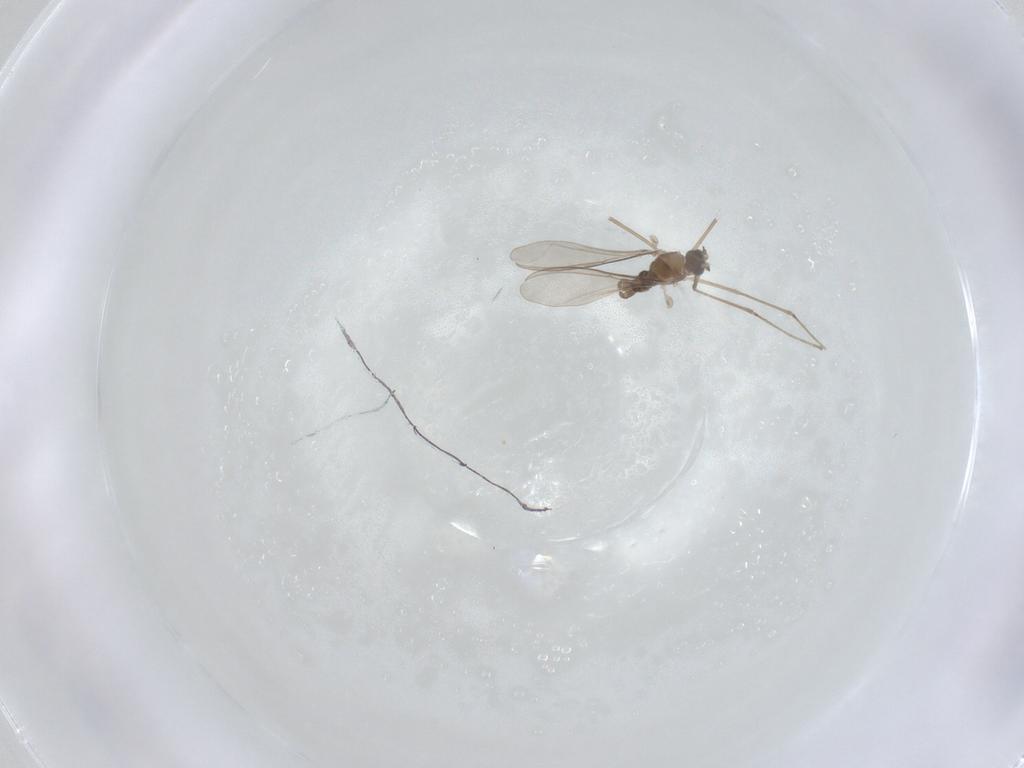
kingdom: Animalia
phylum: Arthropoda
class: Insecta
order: Diptera
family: Cecidomyiidae
